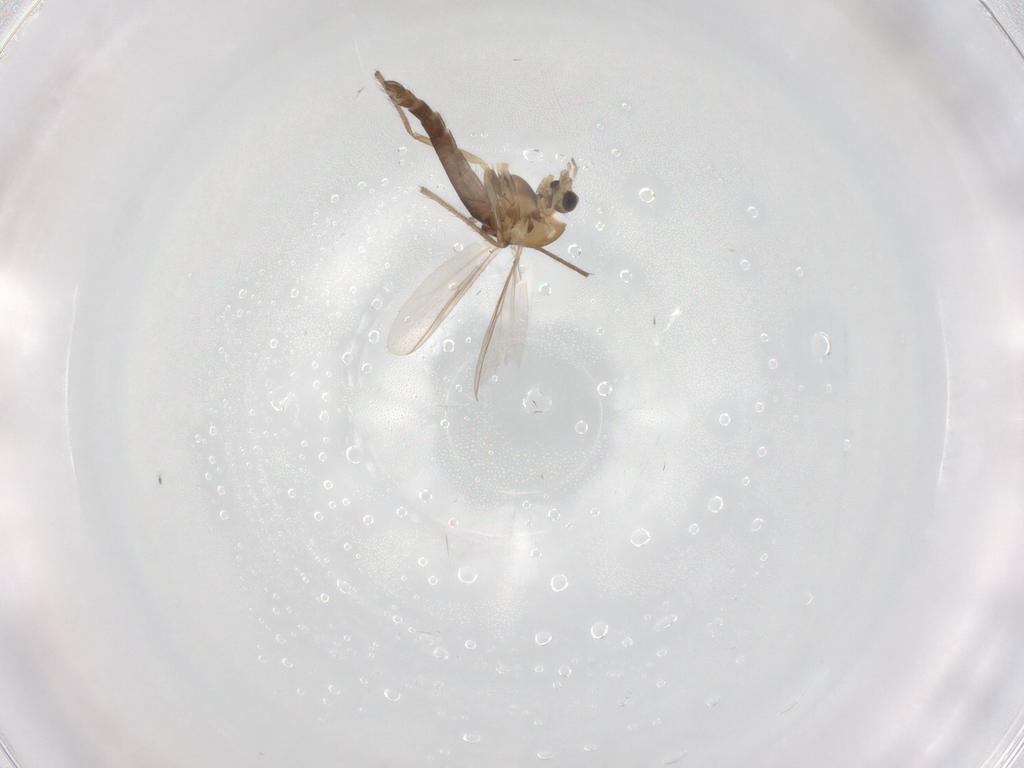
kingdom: Animalia
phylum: Arthropoda
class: Insecta
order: Diptera
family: Chironomidae
